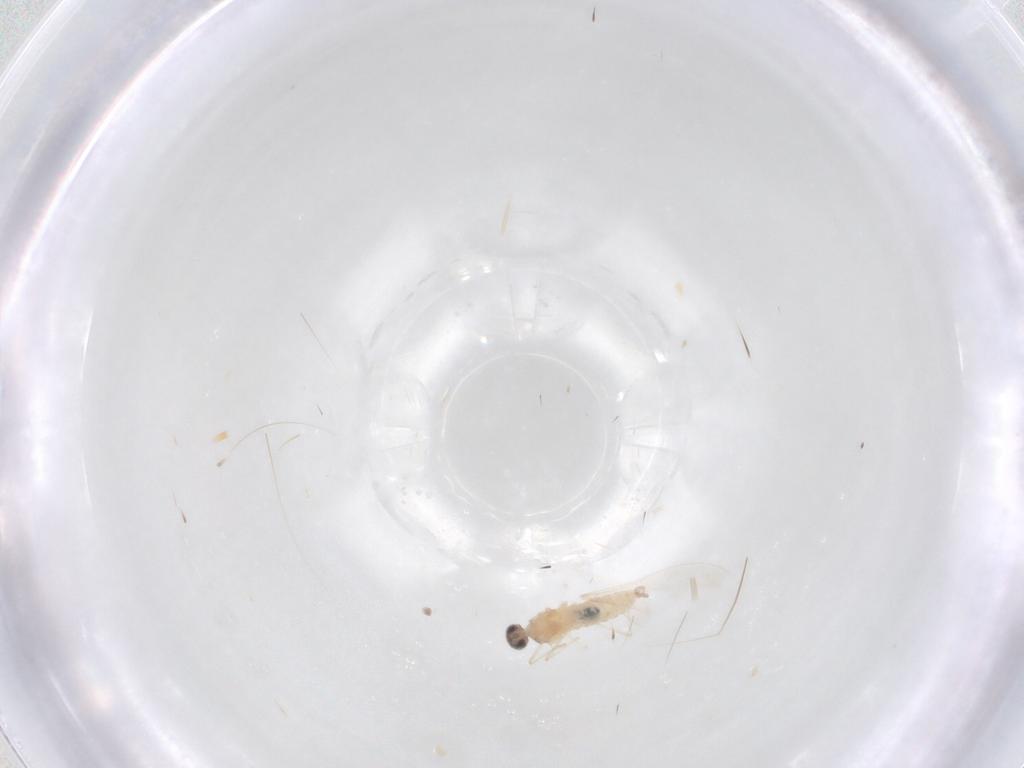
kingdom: Animalia
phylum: Arthropoda
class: Insecta
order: Diptera
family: Cecidomyiidae
